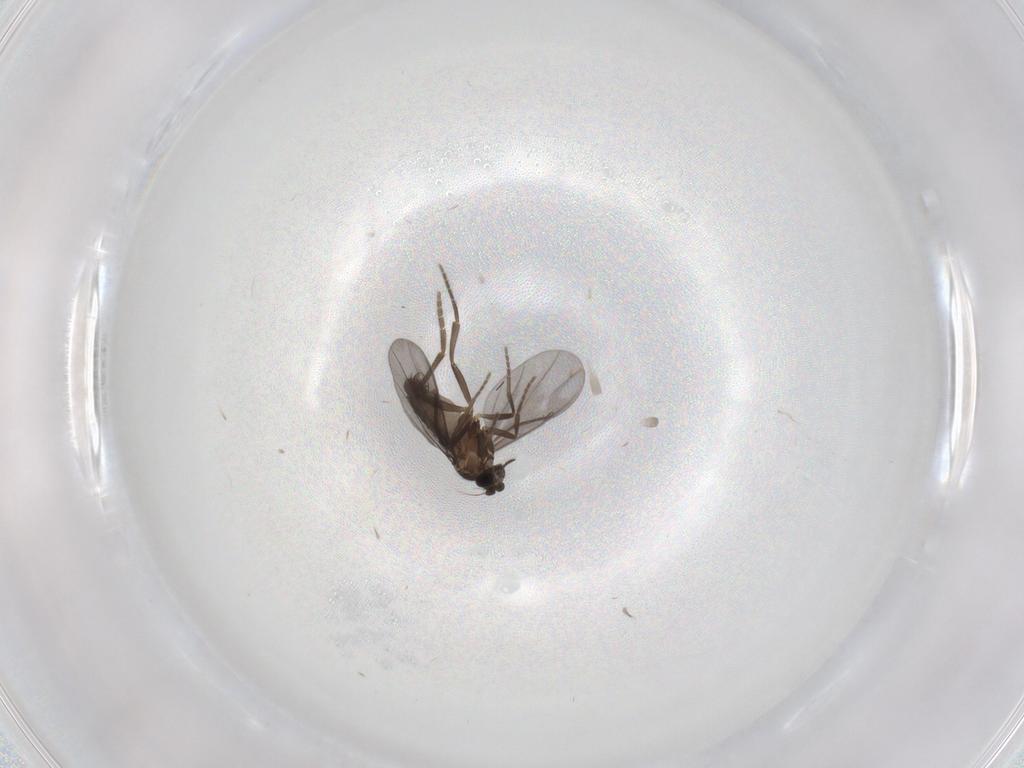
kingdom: Animalia
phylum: Arthropoda
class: Insecta
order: Diptera
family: Phoridae
